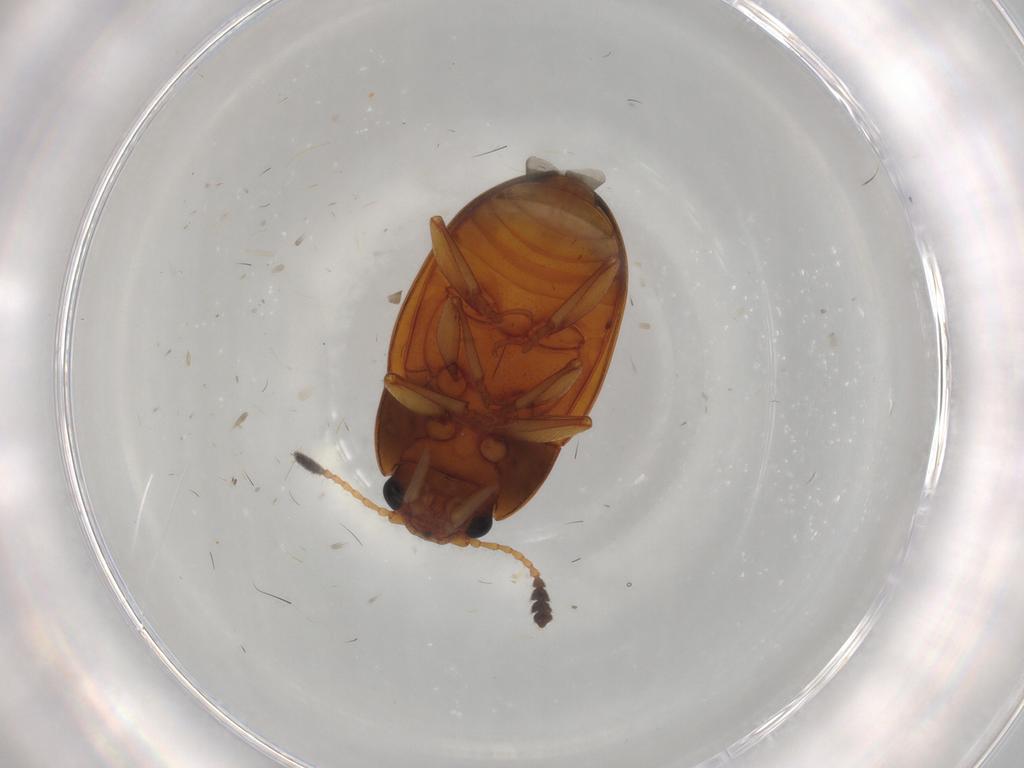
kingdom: Animalia
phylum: Arthropoda
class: Insecta
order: Coleoptera
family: Erotylidae
